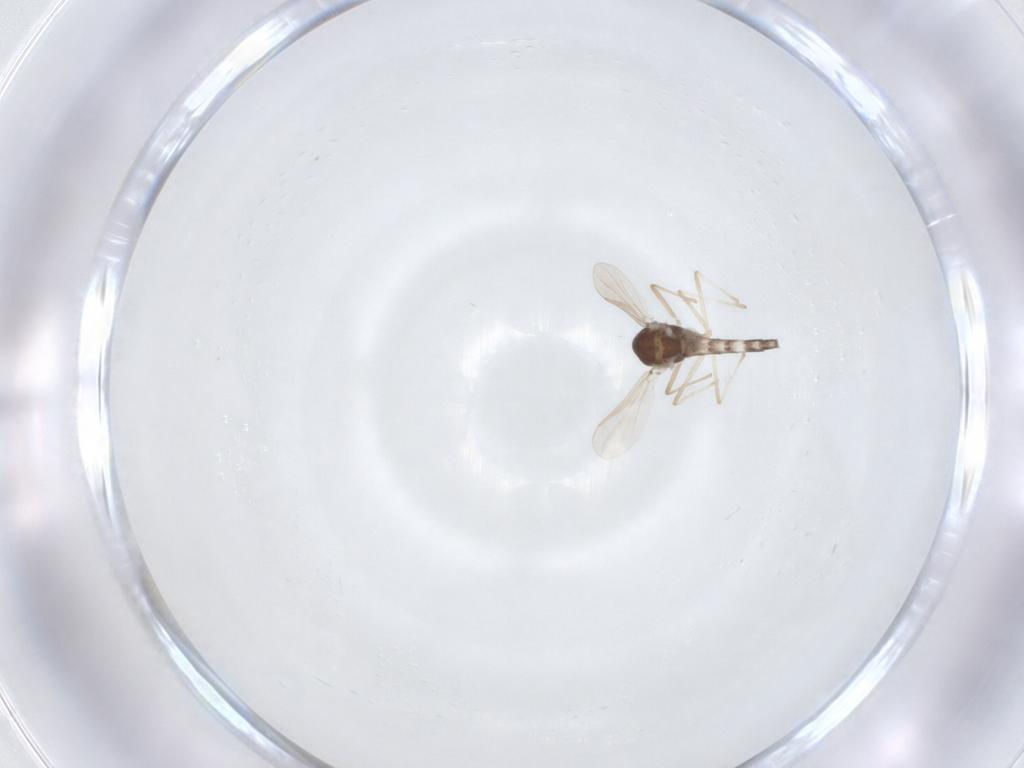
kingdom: Animalia
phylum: Arthropoda
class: Insecta
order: Diptera
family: Chironomidae
